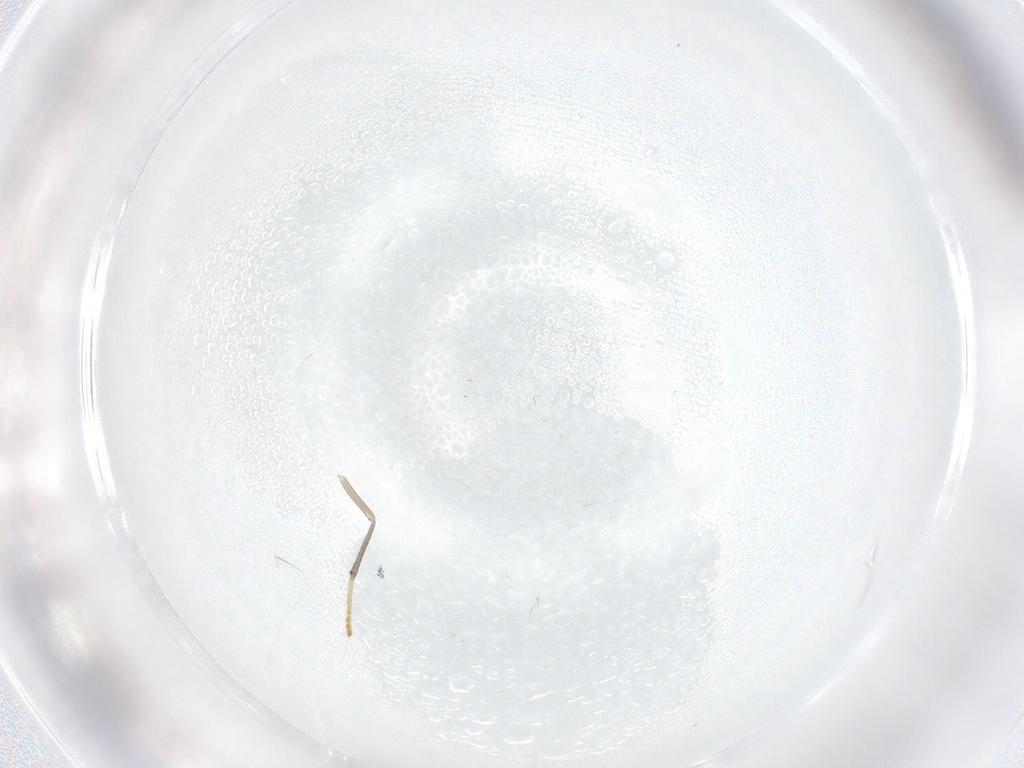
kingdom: Animalia
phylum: Arthropoda
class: Insecta
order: Diptera
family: Psychodidae
